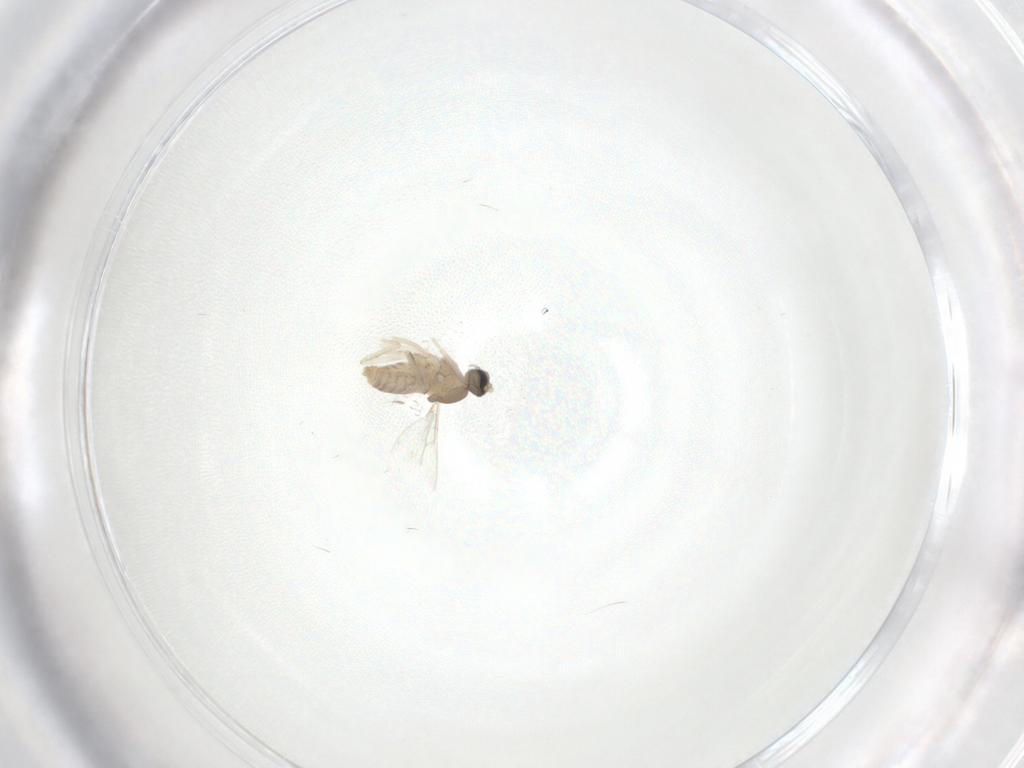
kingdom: Animalia
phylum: Arthropoda
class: Insecta
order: Diptera
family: Cecidomyiidae
